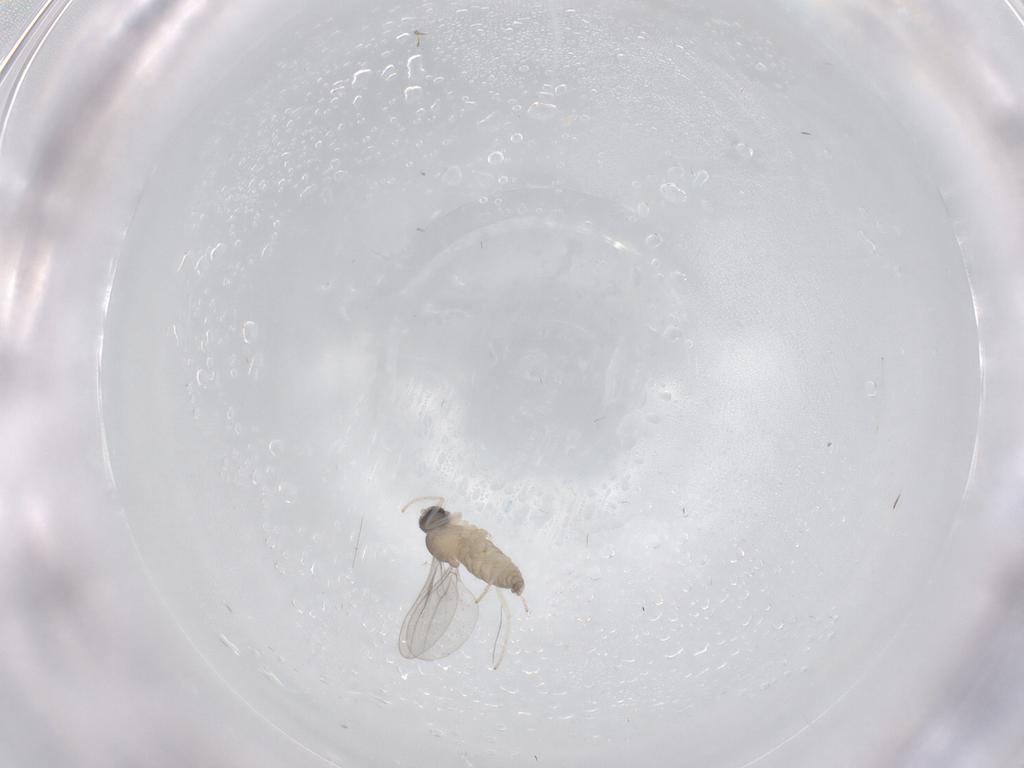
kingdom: Animalia
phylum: Arthropoda
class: Insecta
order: Diptera
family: Cecidomyiidae
